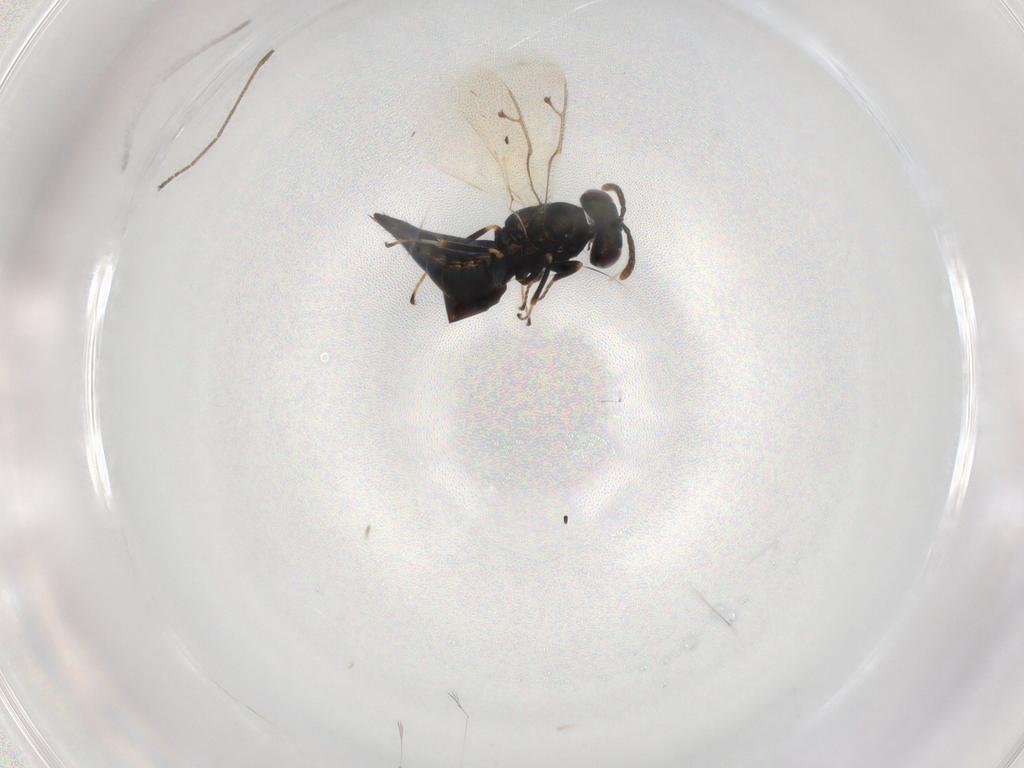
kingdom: Animalia
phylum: Arthropoda
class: Insecta
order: Hymenoptera
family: Pteromalidae
